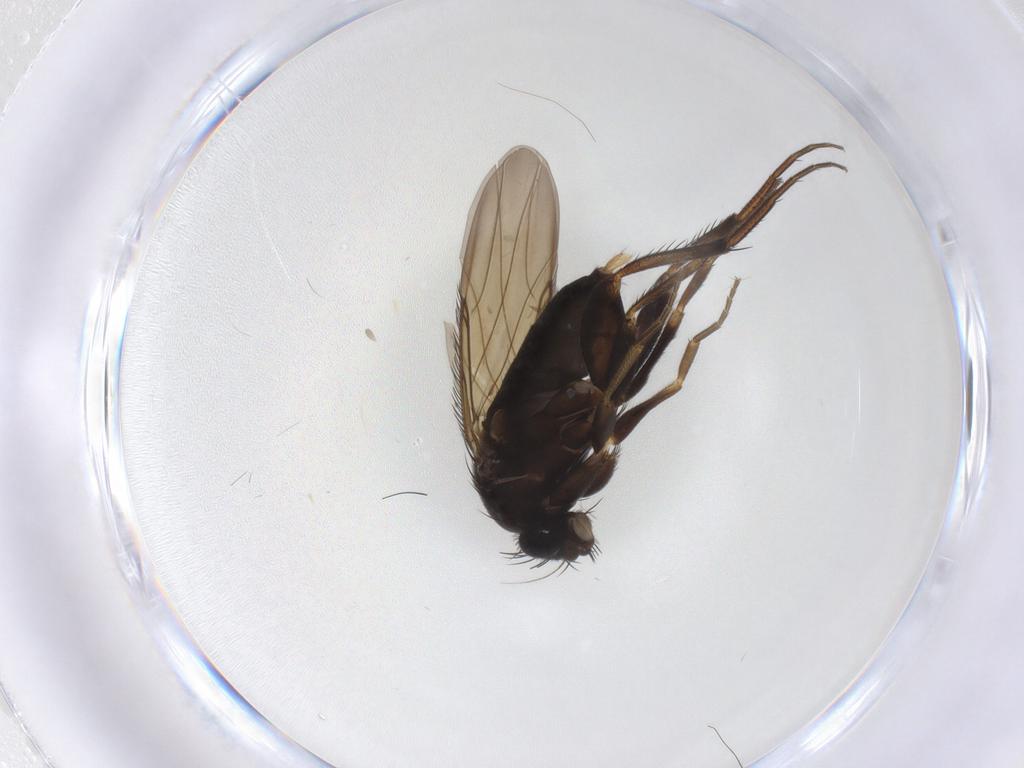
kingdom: Animalia
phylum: Arthropoda
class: Insecta
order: Diptera
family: Phoridae
